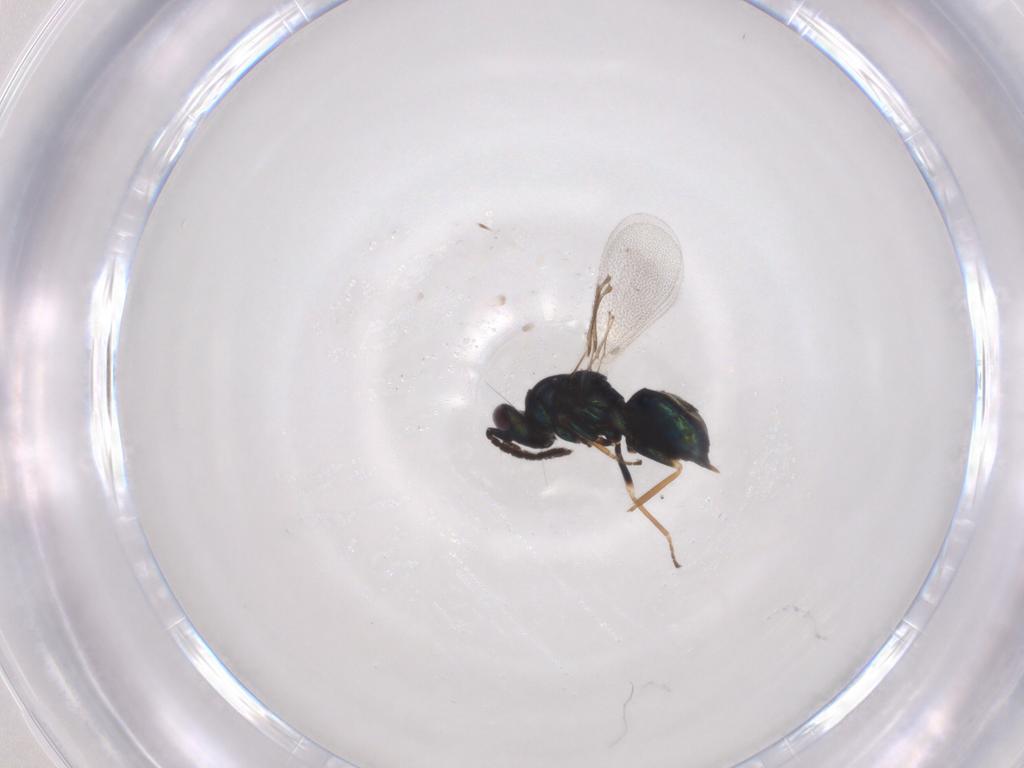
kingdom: Animalia
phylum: Arthropoda
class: Insecta
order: Hymenoptera
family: Eulophidae
